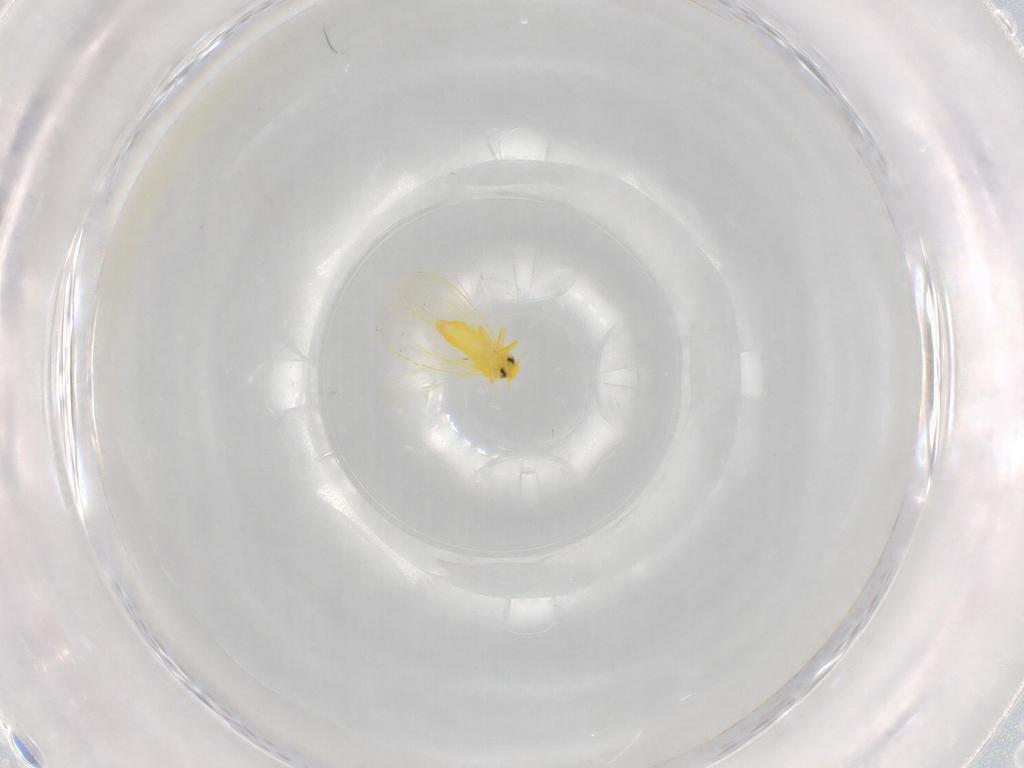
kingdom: Animalia
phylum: Arthropoda
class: Insecta
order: Hemiptera
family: Aleyrodidae
